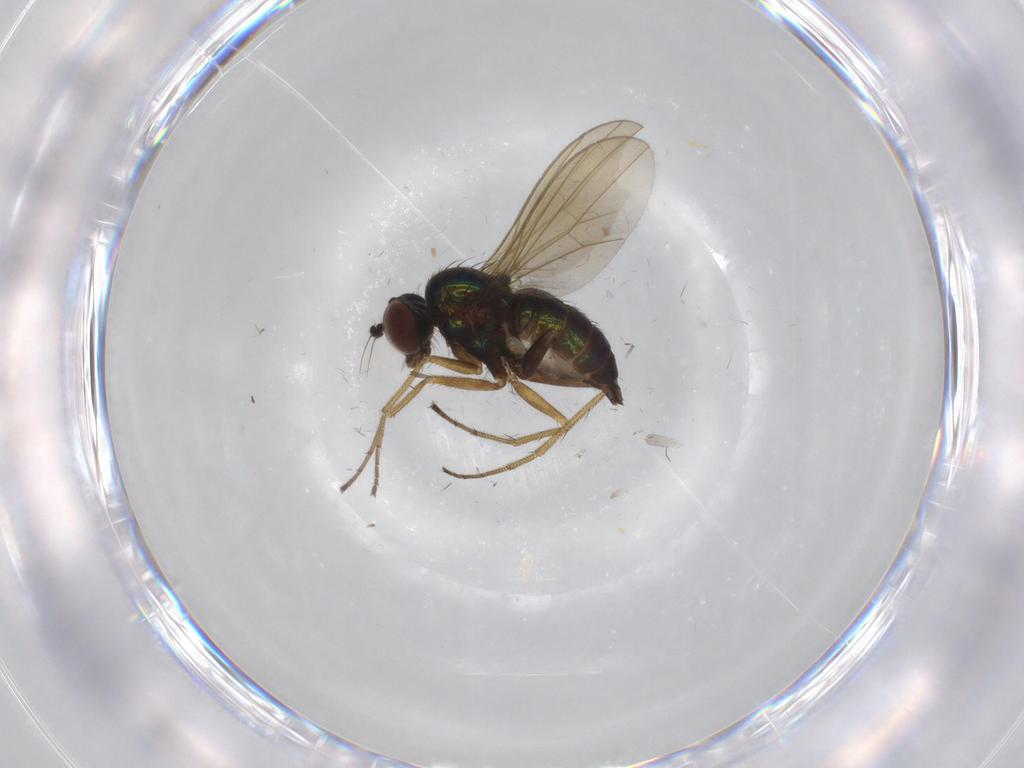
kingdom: Animalia
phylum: Arthropoda
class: Insecta
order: Diptera
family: Dolichopodidae
